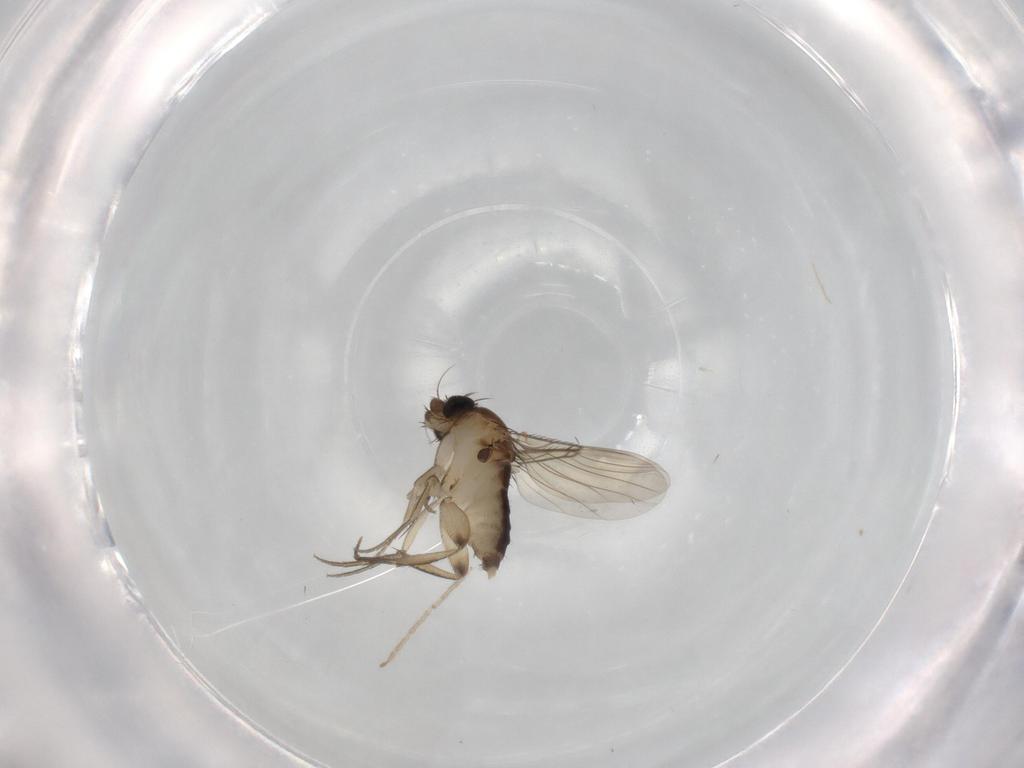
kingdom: Animalia
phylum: Arthropoda
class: Insecta
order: Diptera
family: Phoridae
